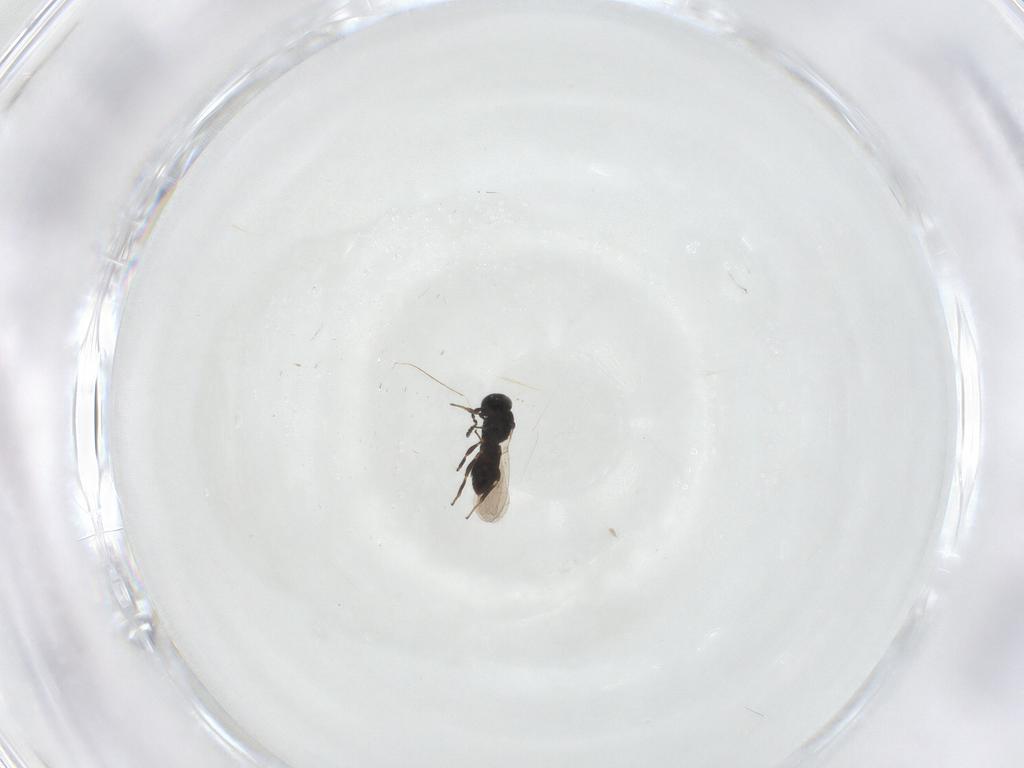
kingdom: Animalia
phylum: Arthropoda
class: Insecta
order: Hymenoptera
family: Platygastridae
